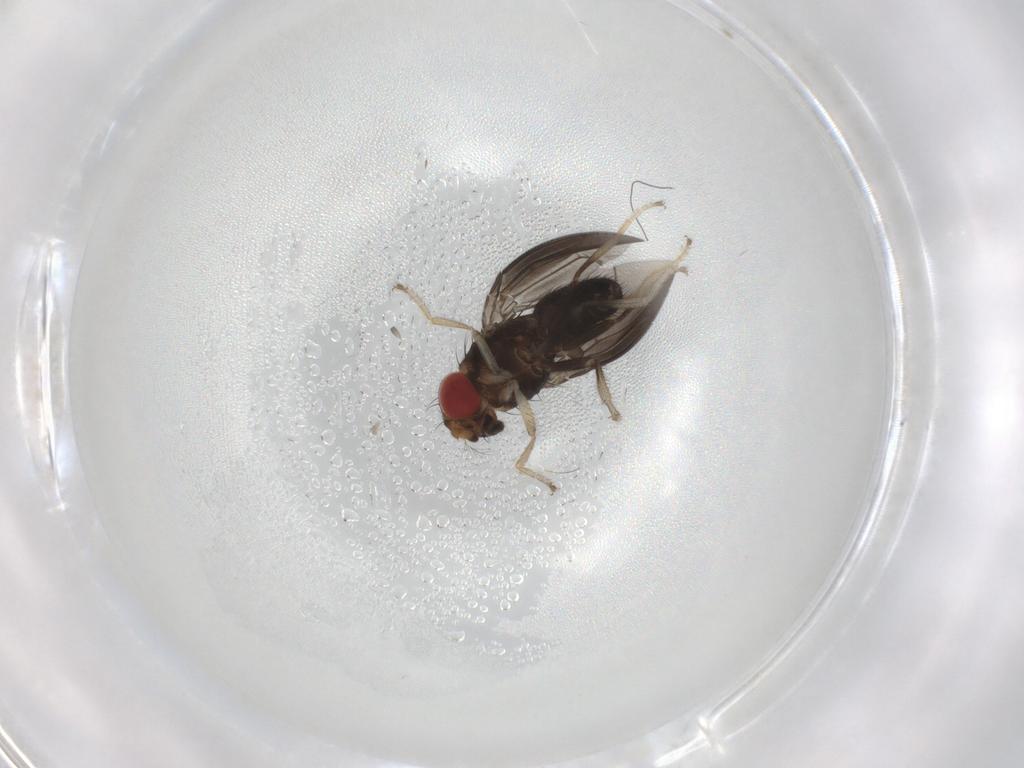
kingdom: Animalia
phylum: Arthropoda
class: Insecta
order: Diptera
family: Drosophilidae
